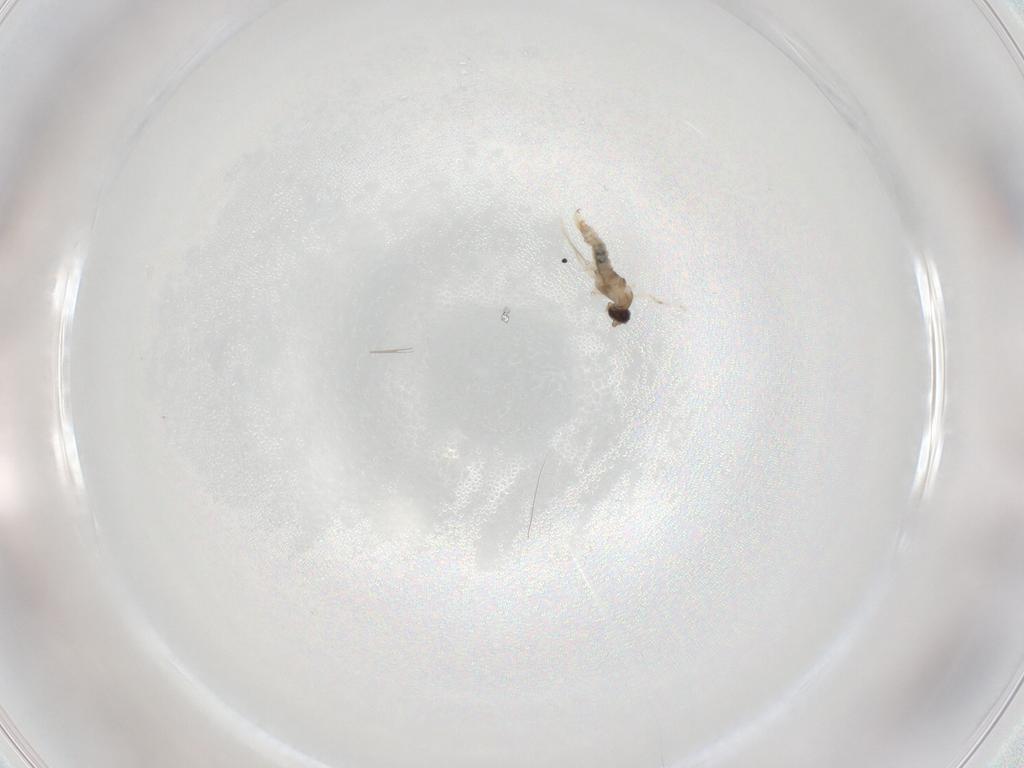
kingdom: Animalia
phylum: Arthropoda
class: Insecta
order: Diptera
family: Cecidomyiidae
